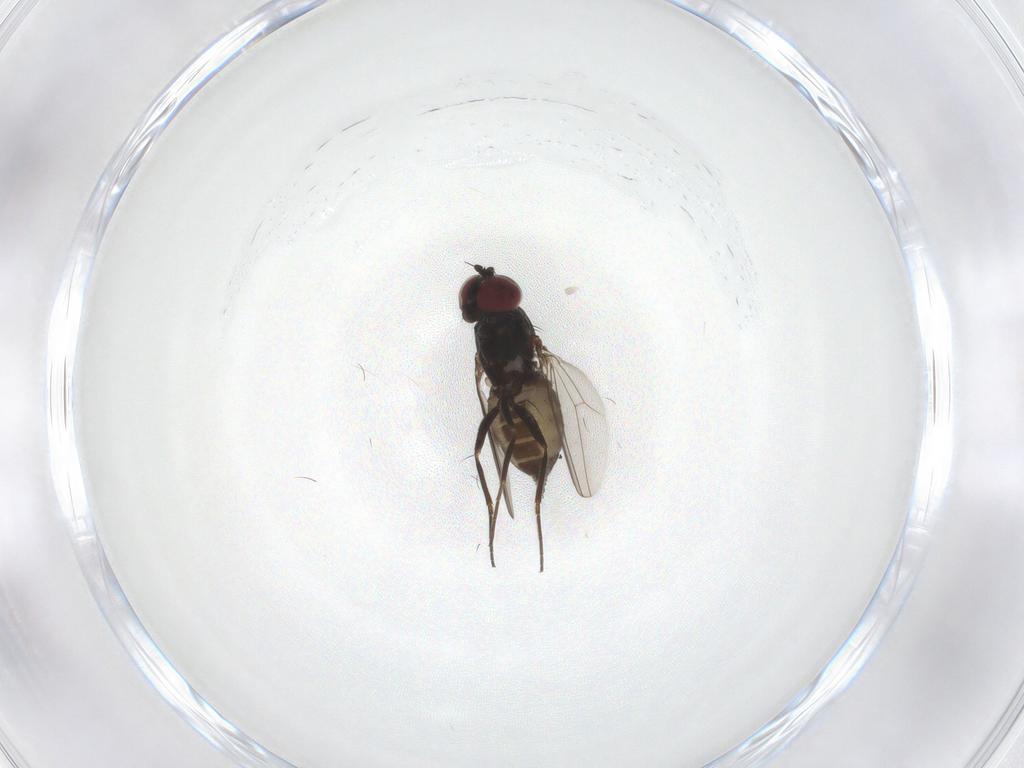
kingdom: Animalia
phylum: Arthropoda
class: Insecta
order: Diptera
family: Dolichopodidae
